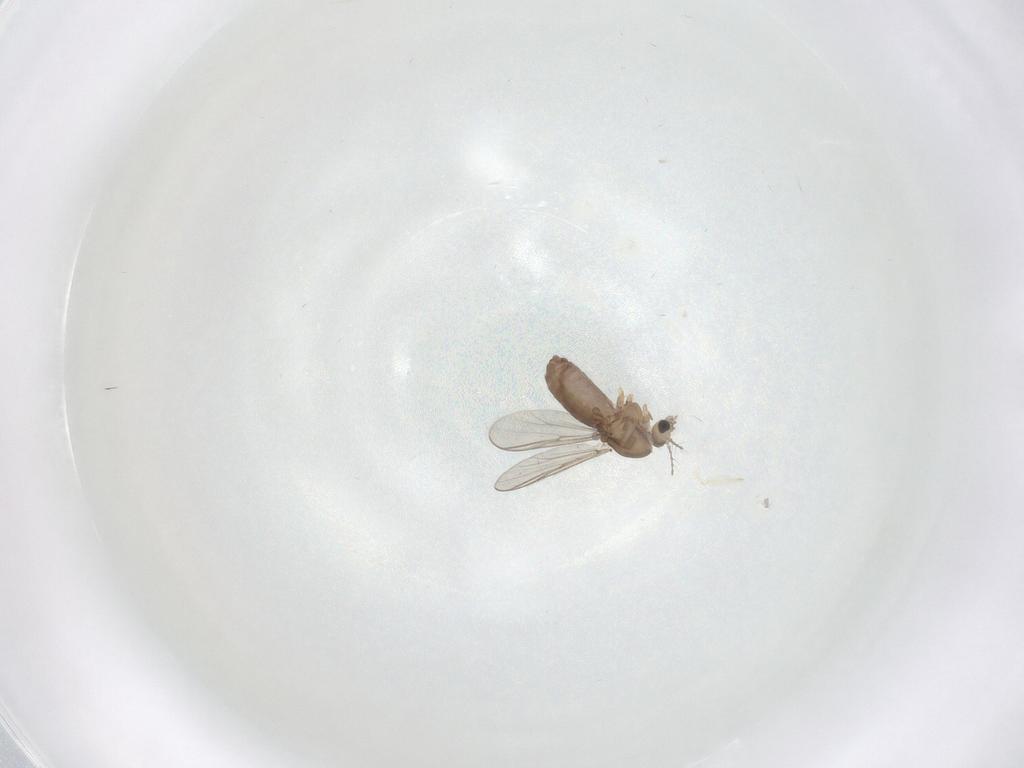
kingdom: Animalia
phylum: Arthropoda
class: Insecta
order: Diptera
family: Chironomidae
